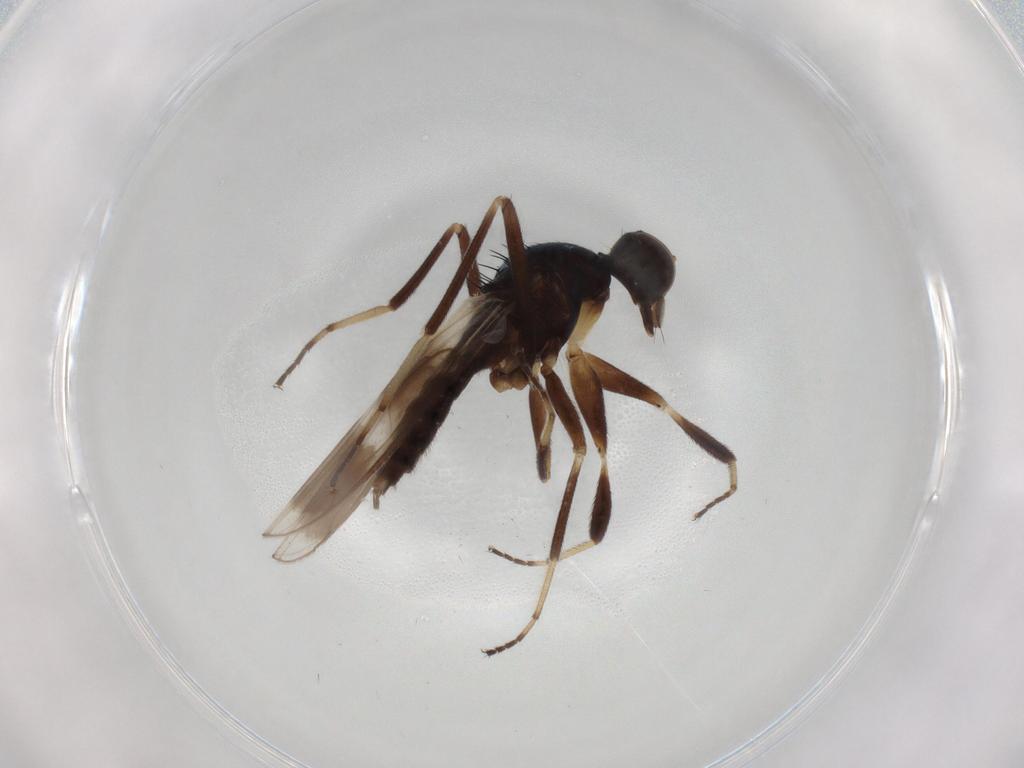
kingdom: Animalia
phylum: Arthropoda
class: Insecta
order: Diptera
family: Hybotidae
